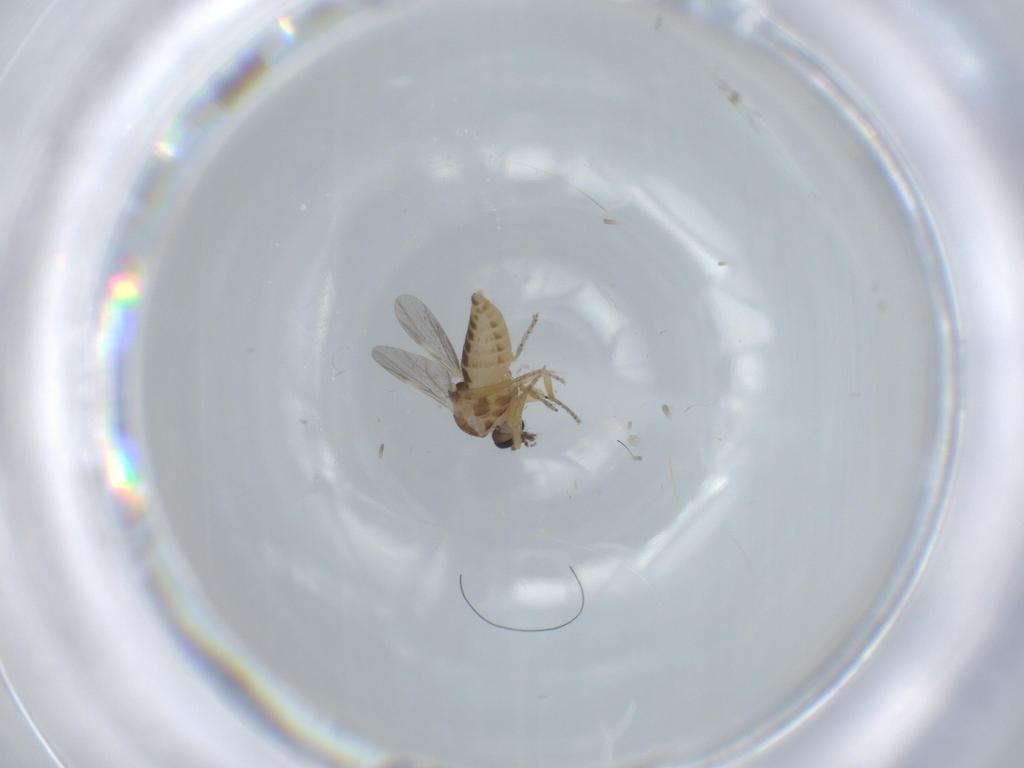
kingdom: Animalia
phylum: Arthropoda
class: Insecta
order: Diptera
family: Ceratopogonidae
